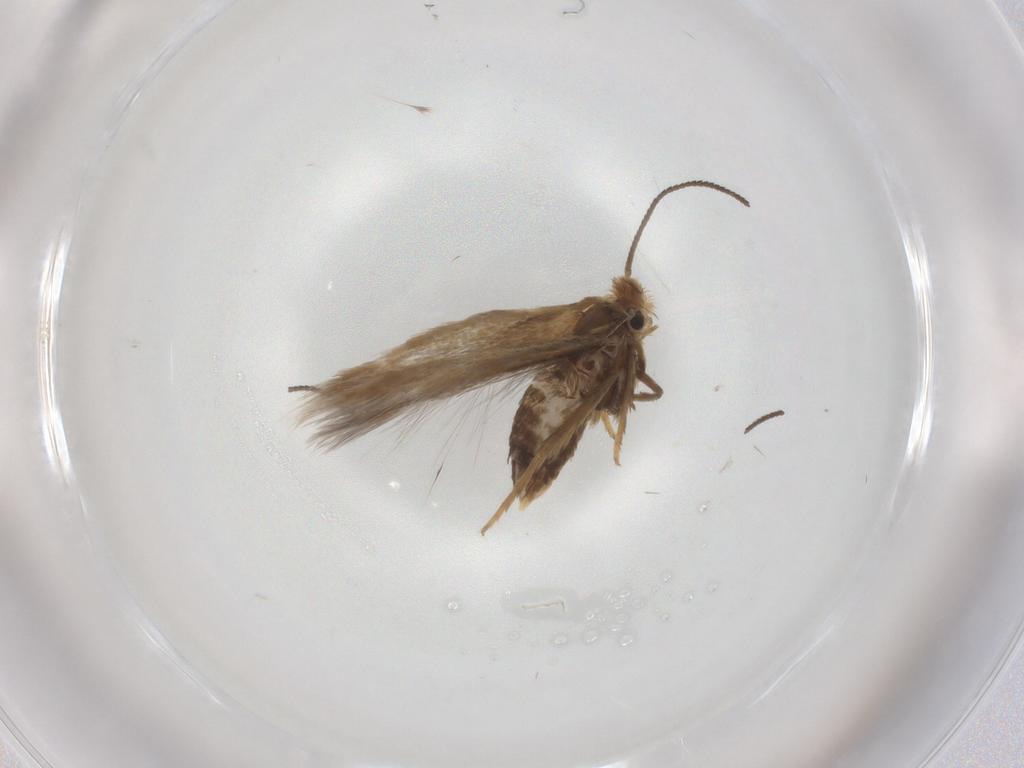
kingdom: Animalia
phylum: Arthropoda
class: Insecta
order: Lepidoptera
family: Nepticulidae
